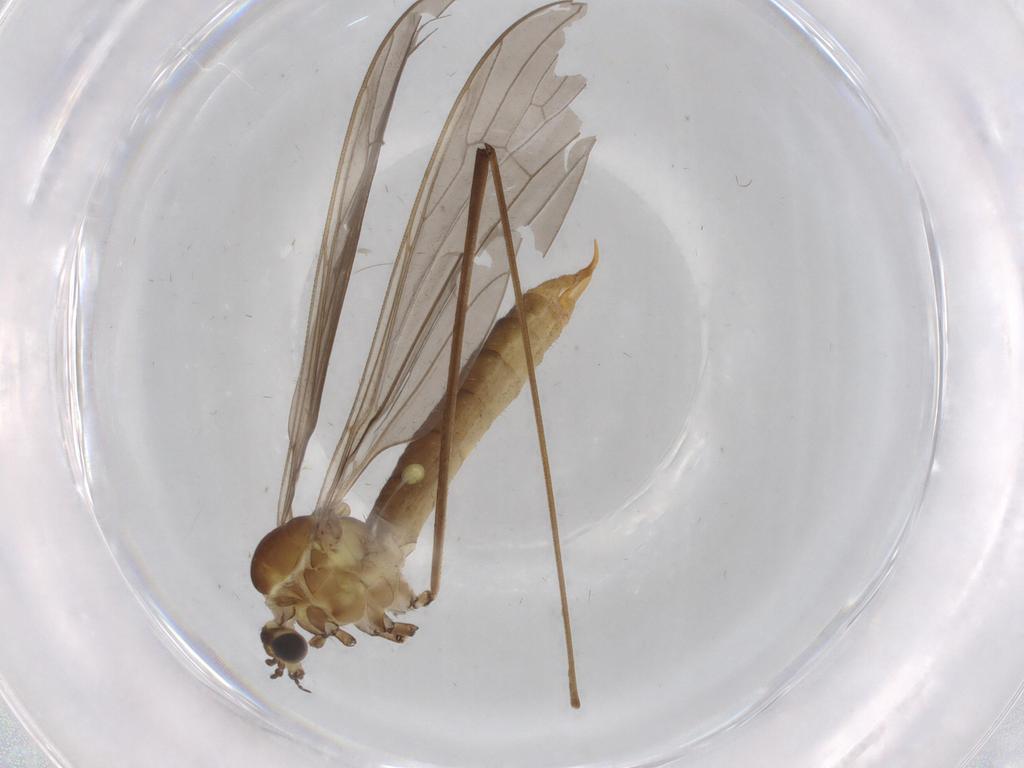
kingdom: Animalia
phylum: Arthropoda
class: Insecta
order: Diptera
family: Limoniidae
